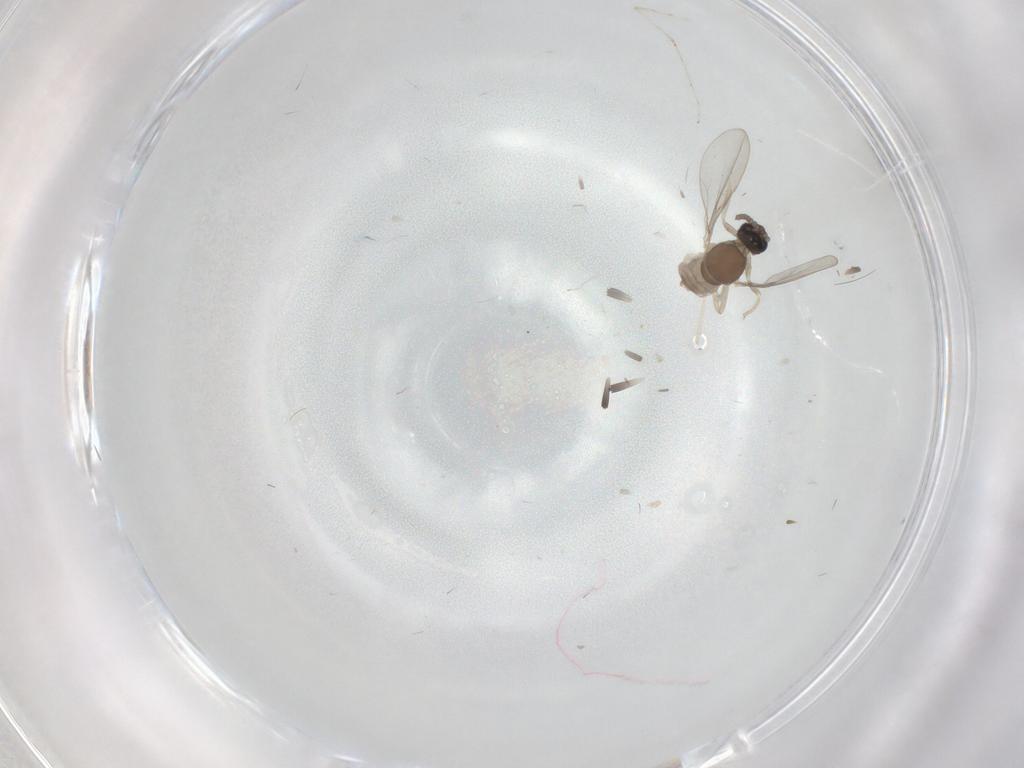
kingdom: Animalia
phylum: Arthropoda
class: Insecta
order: Diptera
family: Cecidomyiidae
